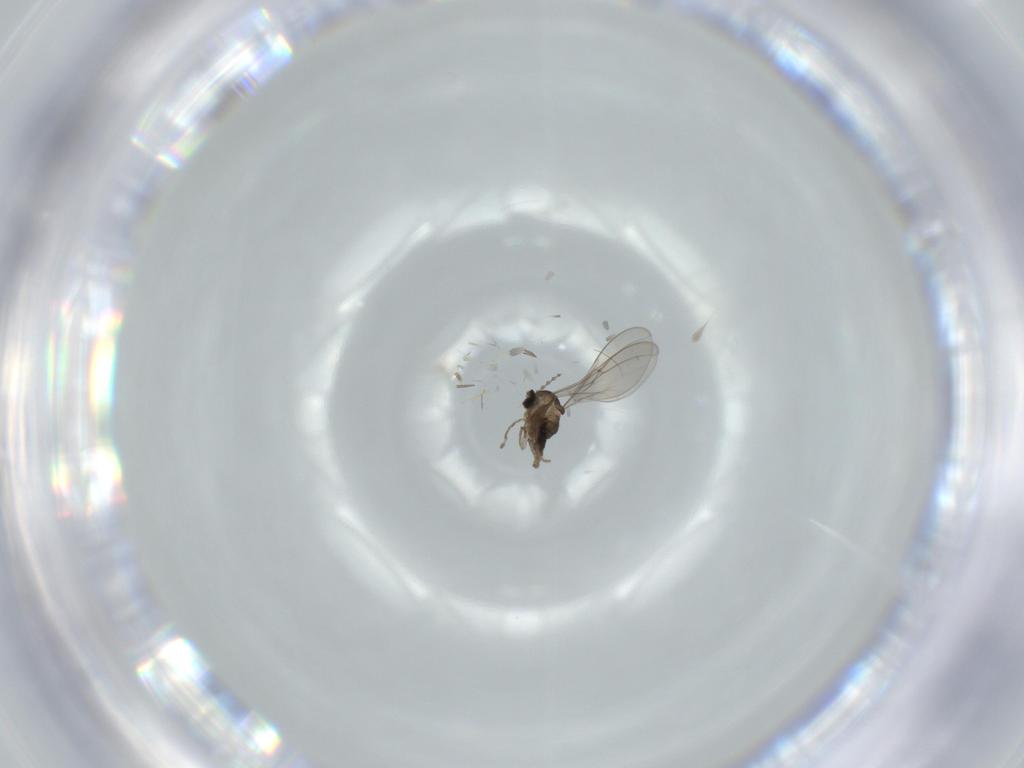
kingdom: Animalia
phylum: Arthropoda
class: Insecta
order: Diptera
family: Cecidomyiidae
